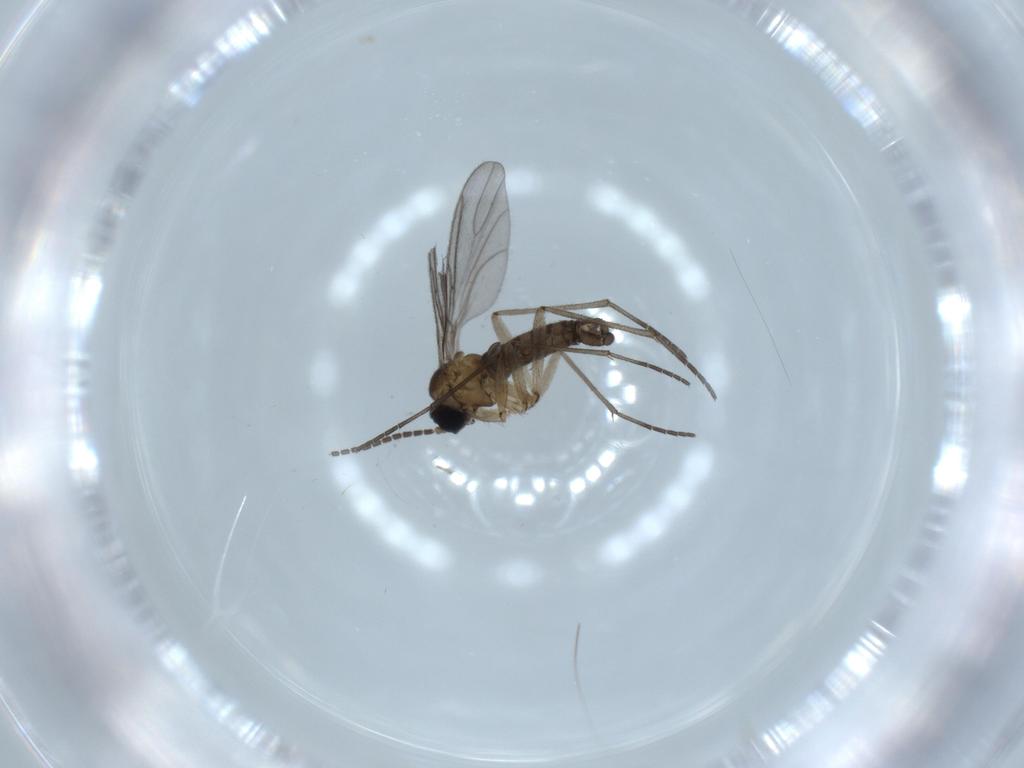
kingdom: Animalia
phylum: Arthropoda
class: Insecta
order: Diptera
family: Sciaridae
